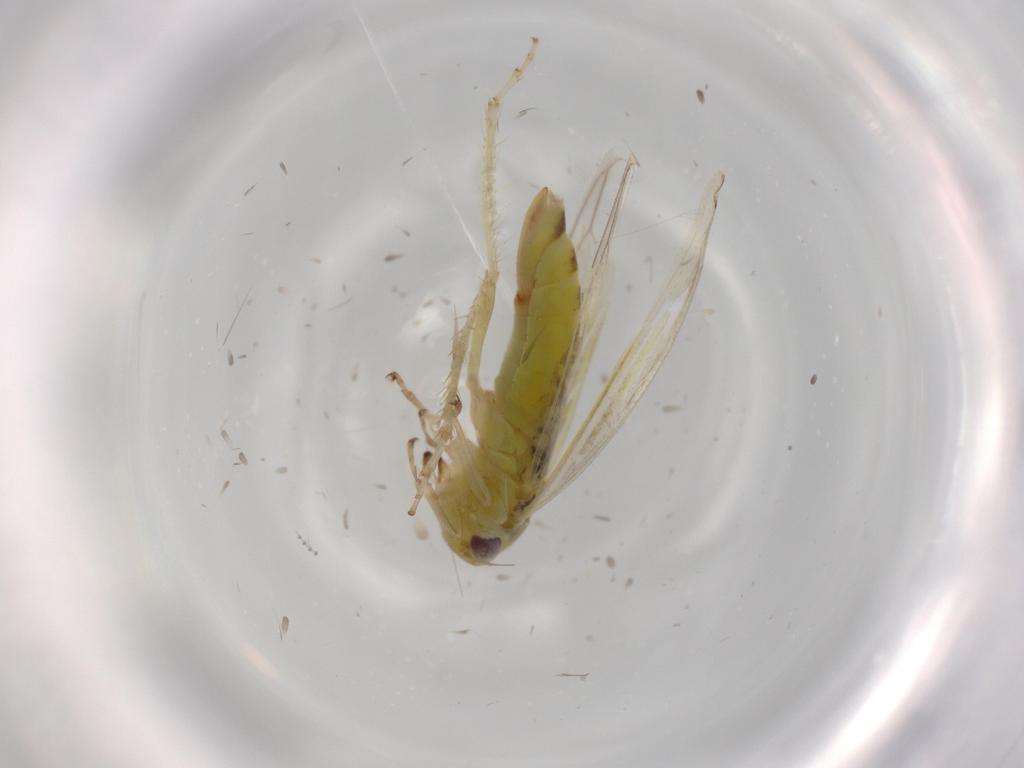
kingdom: Animalia
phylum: Arthropoda
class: Insecta
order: Hemiptera
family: Cicadellidae
